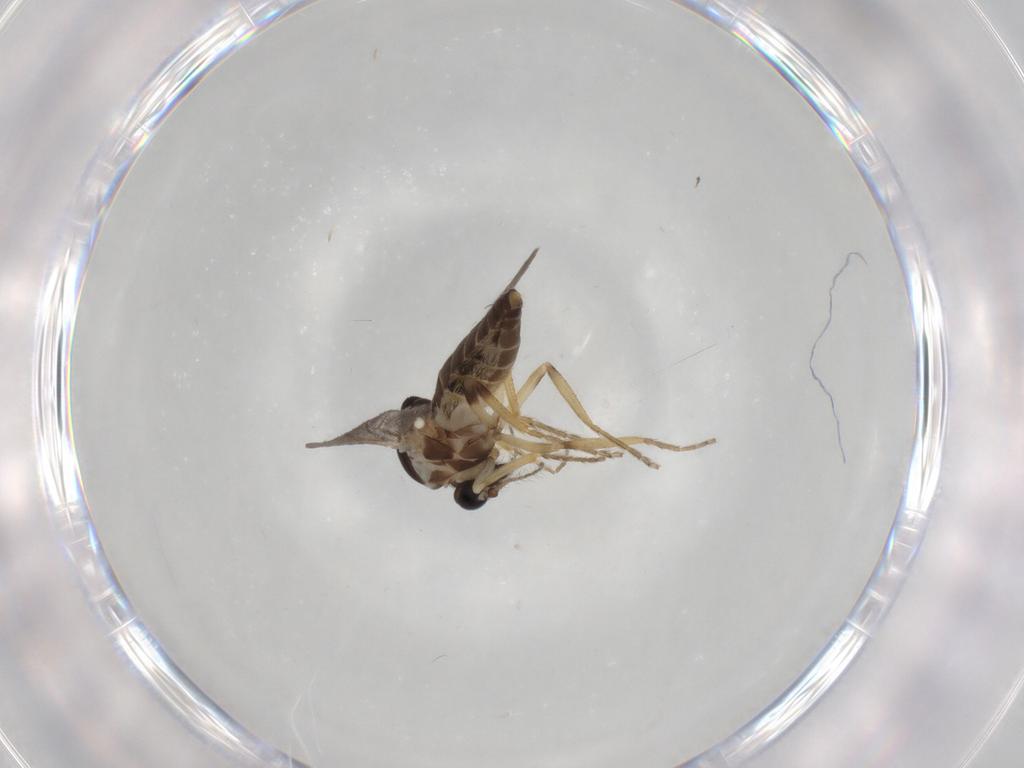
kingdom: Animalia
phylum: Arthropoda
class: Insecta
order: Diptera
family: Ceratopogonidae
